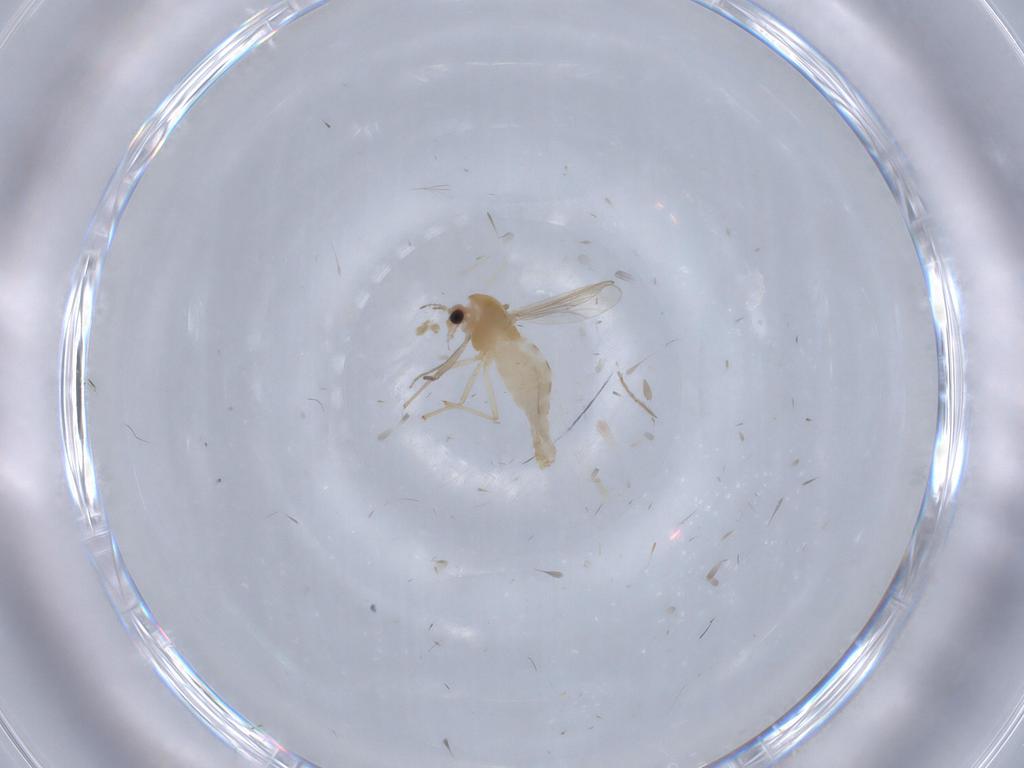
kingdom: Animalia
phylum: Arthropoda
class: Insecta
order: Diptera
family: Chironomidae
